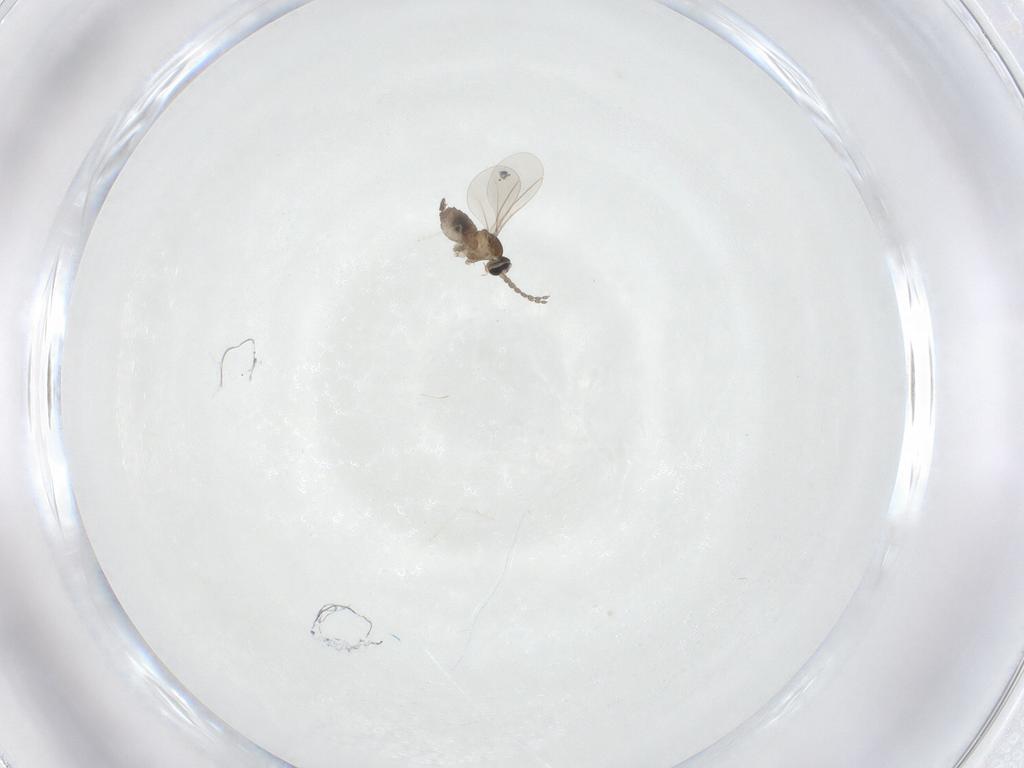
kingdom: Animalia
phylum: Arthropoda
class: Insecta
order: Diptera
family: Cecidomyiidae
